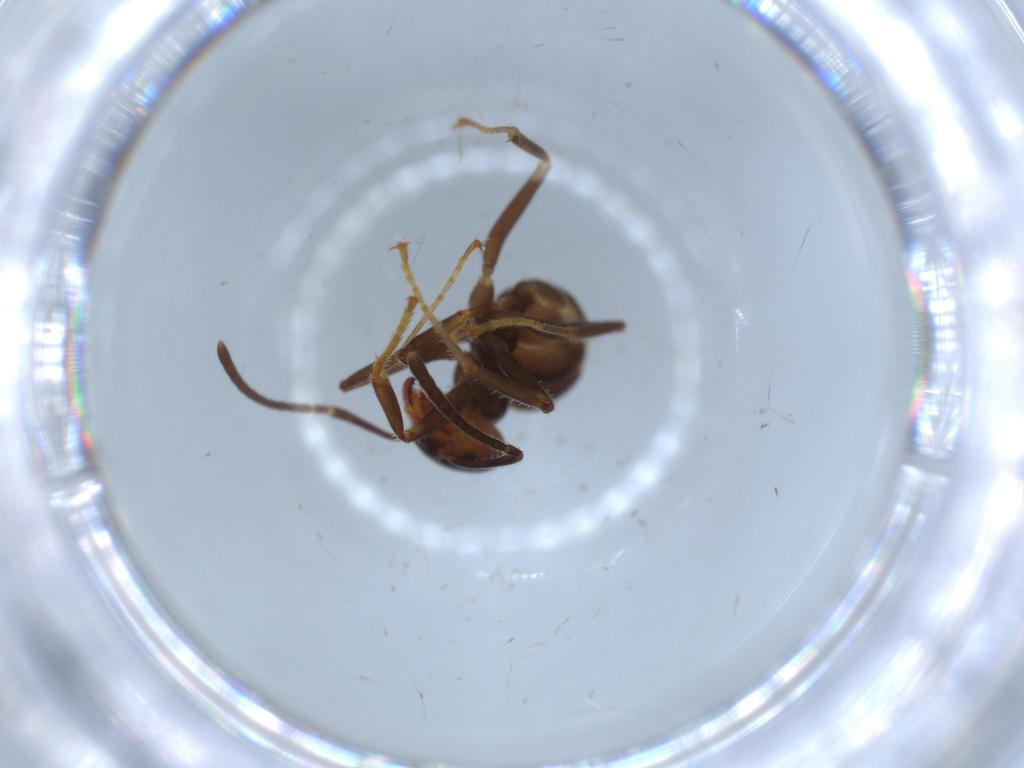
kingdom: Animalia
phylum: Arthropoda
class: Insecta
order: Hymenoptera
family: Formicidae
